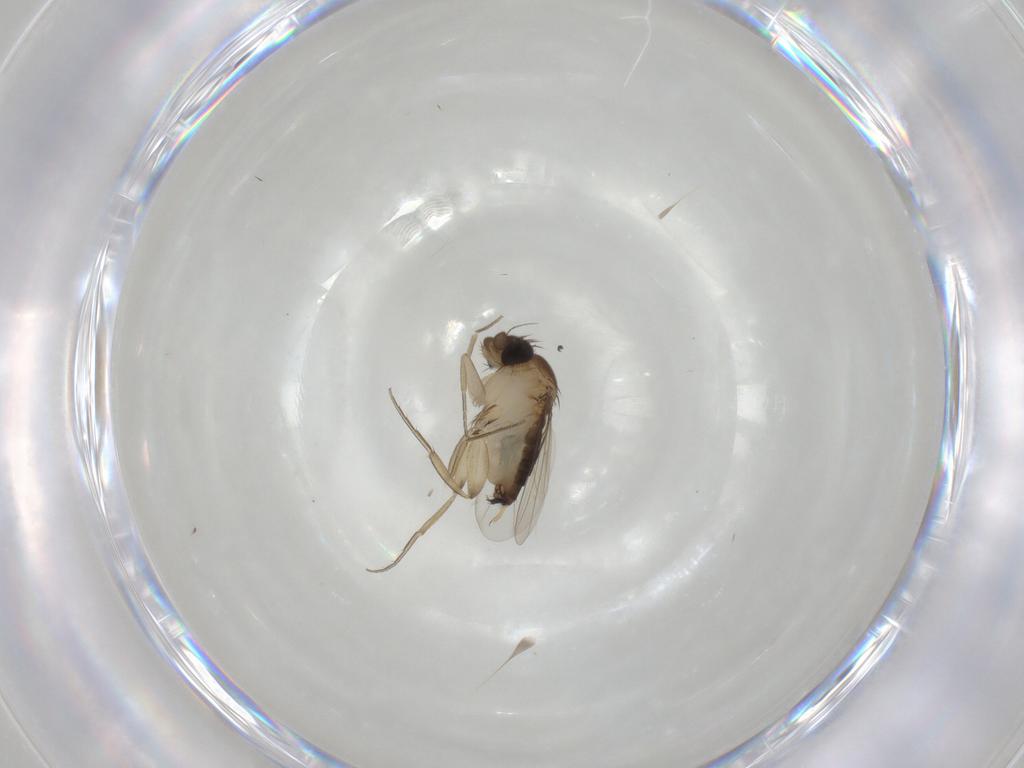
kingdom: Animalia
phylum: Arthropoda
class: Insecta
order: Diptera
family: Phoridae
